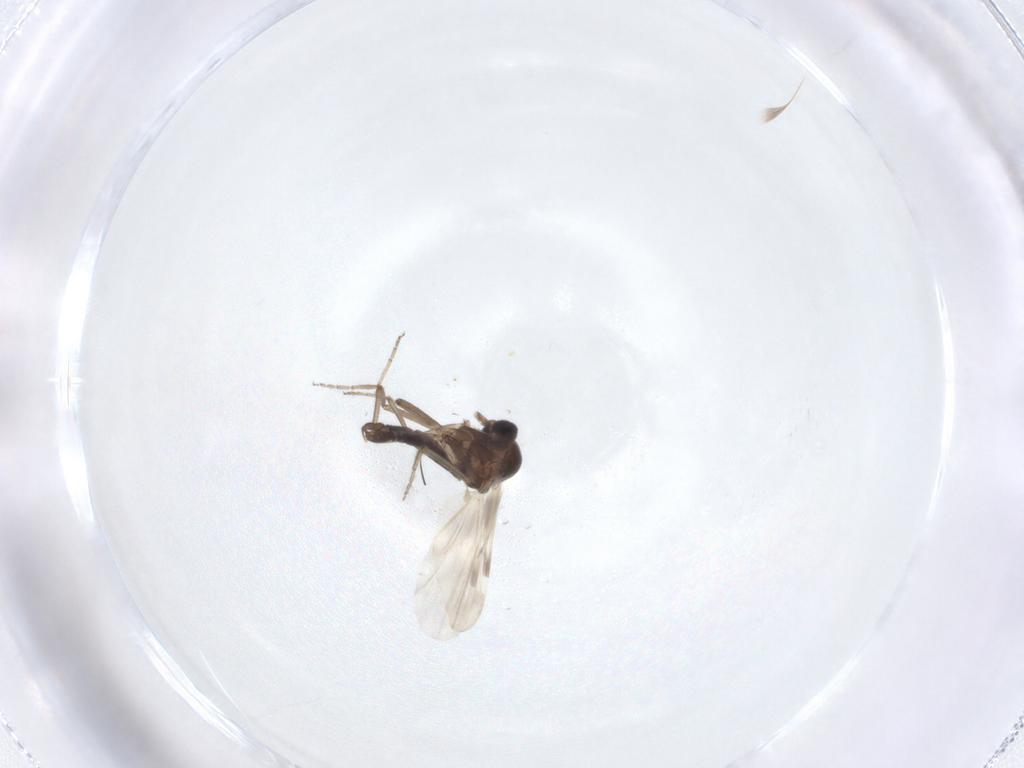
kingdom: Animalia
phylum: Arthropoda
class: Insecta
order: Diptera
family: Ceratopogonidae
